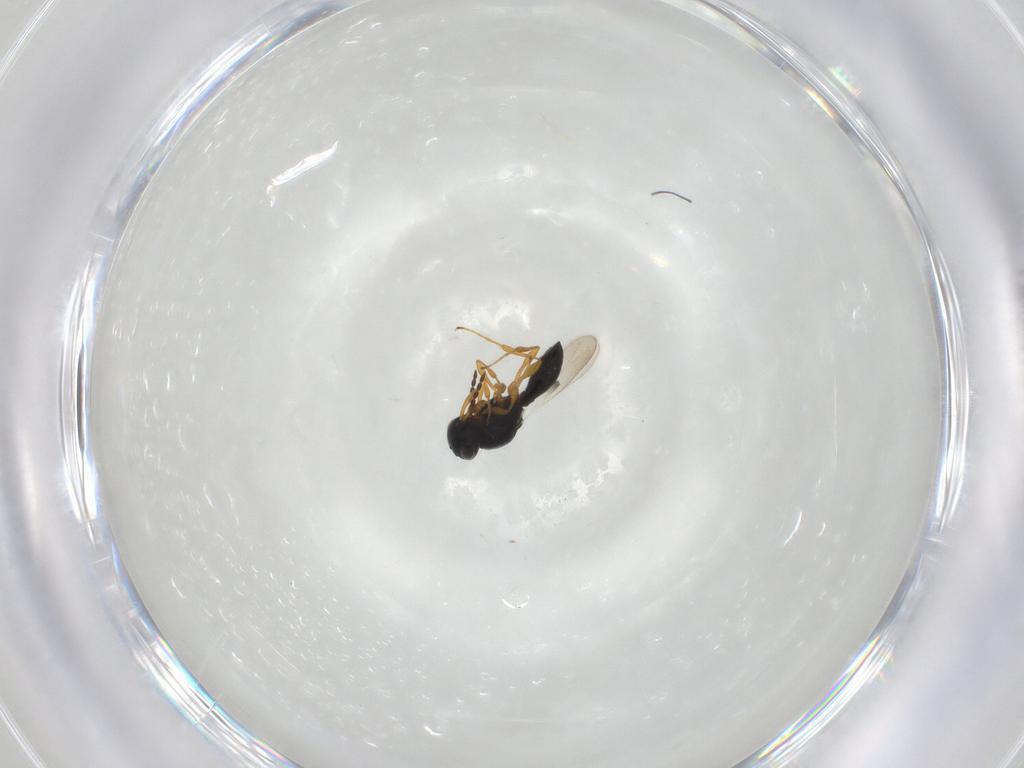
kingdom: Animalia
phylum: Arthropoda
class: Insecta
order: Hymenoptera
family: Platygastridae
